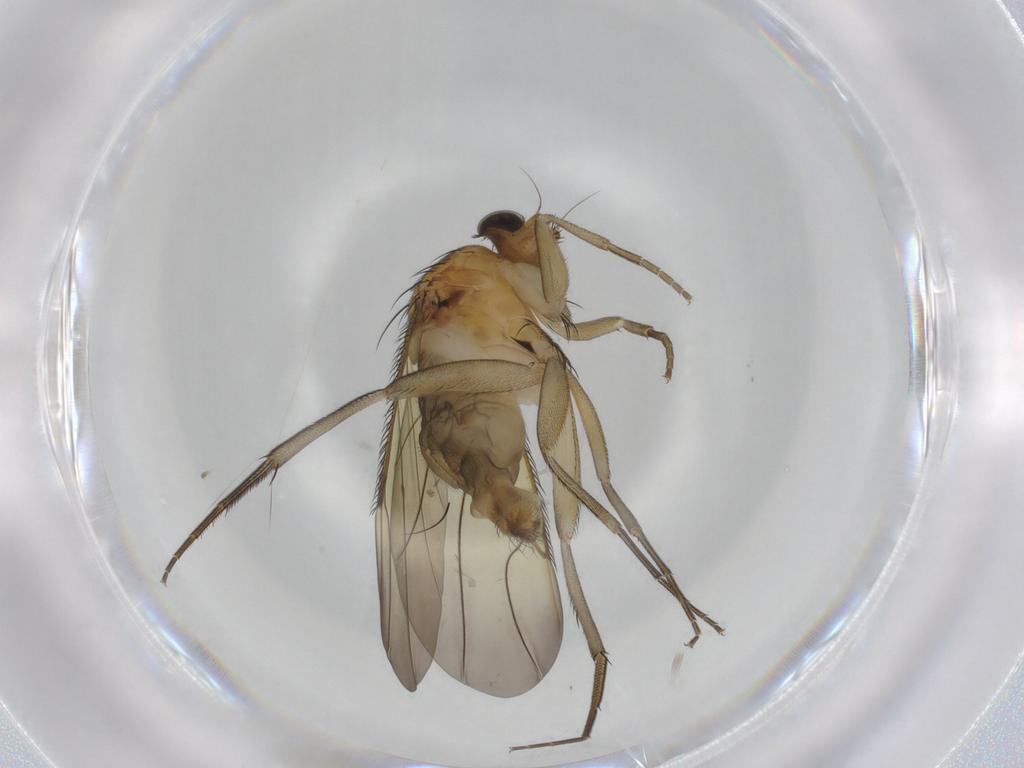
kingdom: Animalia
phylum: Arthropoda
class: Insecta
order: Diptera
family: Phoridae
